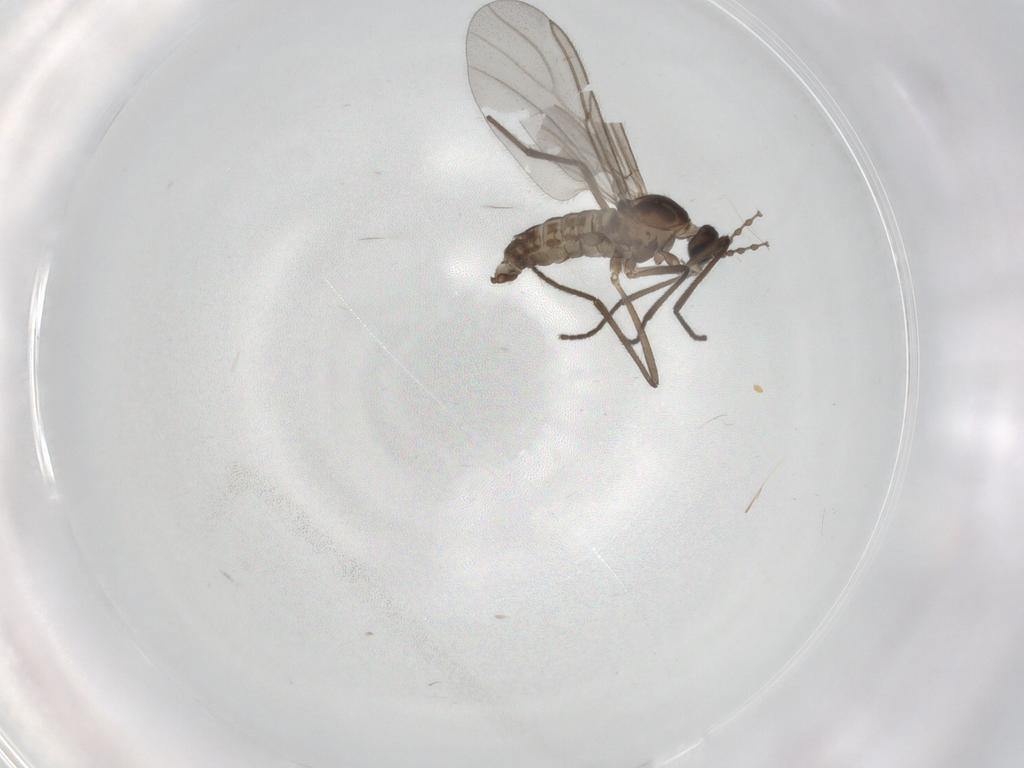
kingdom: Animalia
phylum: Arthropoda
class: Insecta
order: Diptera
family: Cecidomyiidae
